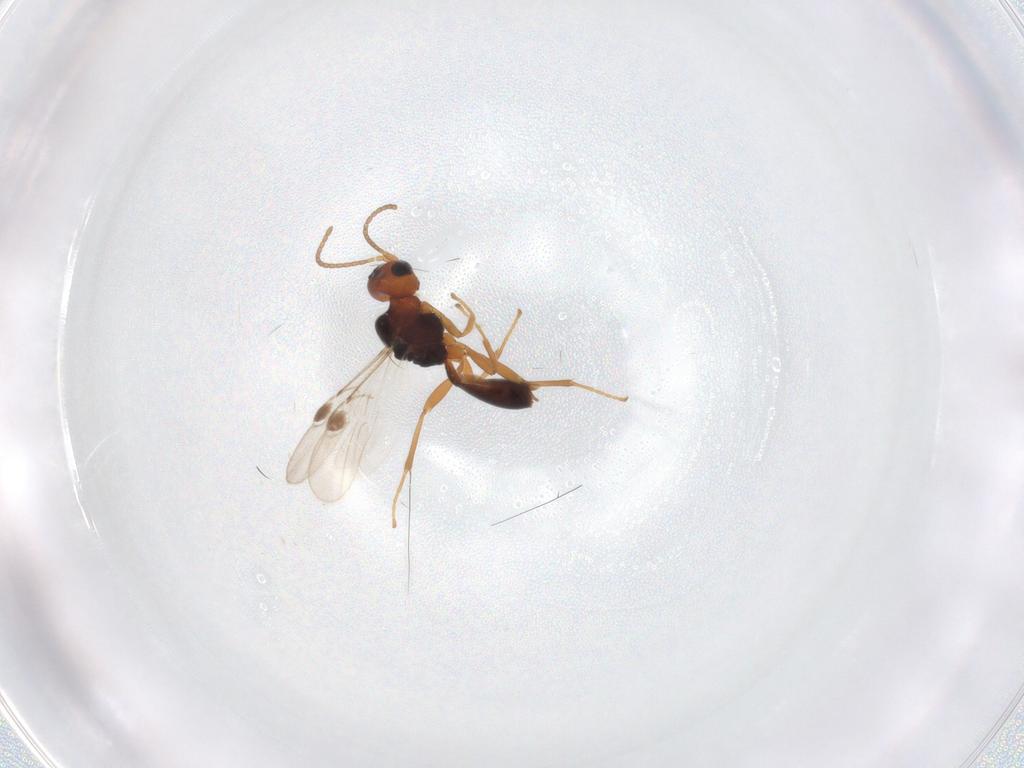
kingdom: Animalia
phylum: Arthropoda
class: Insecta
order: Hymenoptera
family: Braconidae
